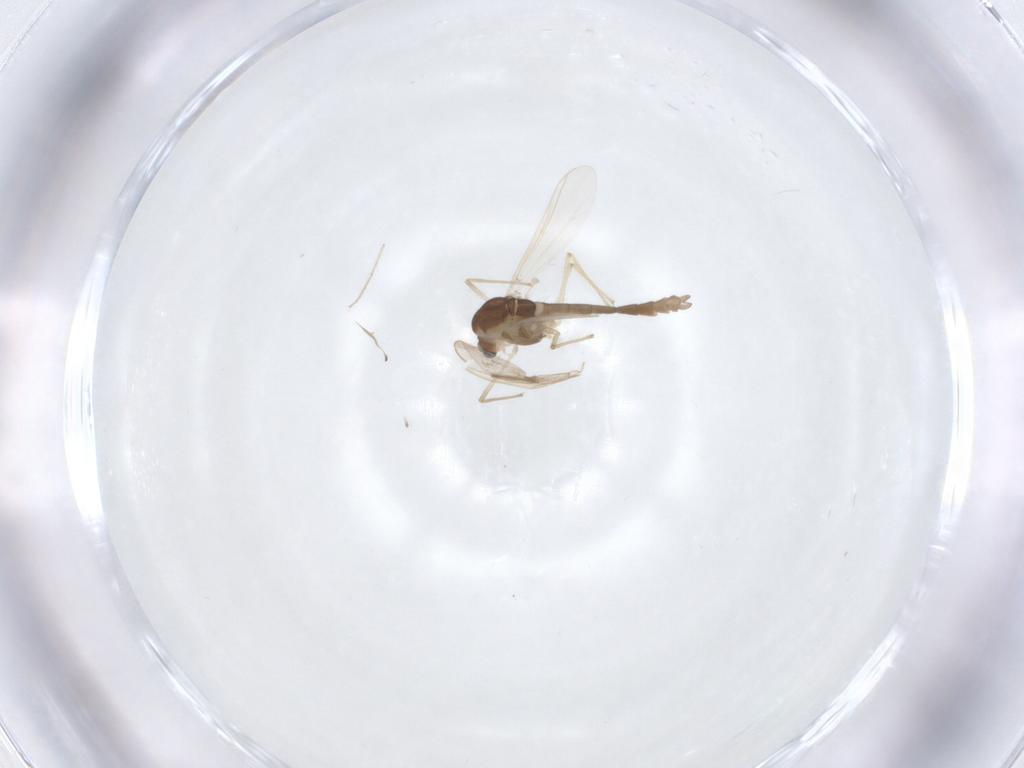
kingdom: Animalia
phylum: Arthropoda
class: Insecta
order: Diptera
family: Chironomidae
